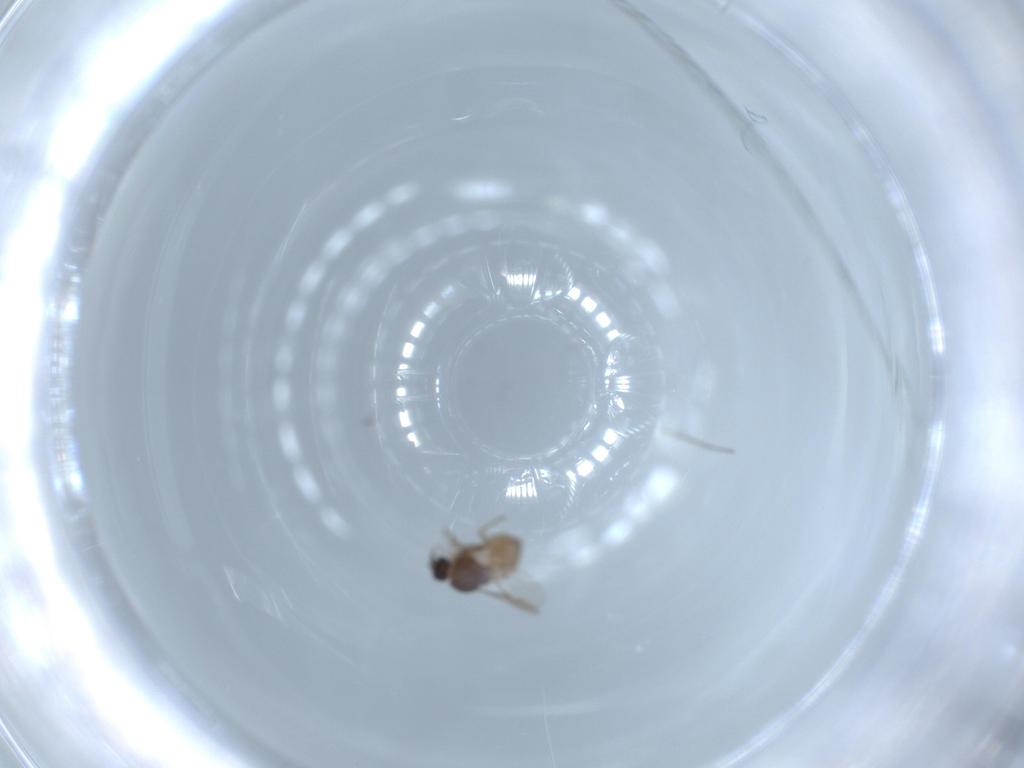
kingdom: Animalia
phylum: Arthropoda
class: Insecta
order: Diptera
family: Ceratopogonidae
